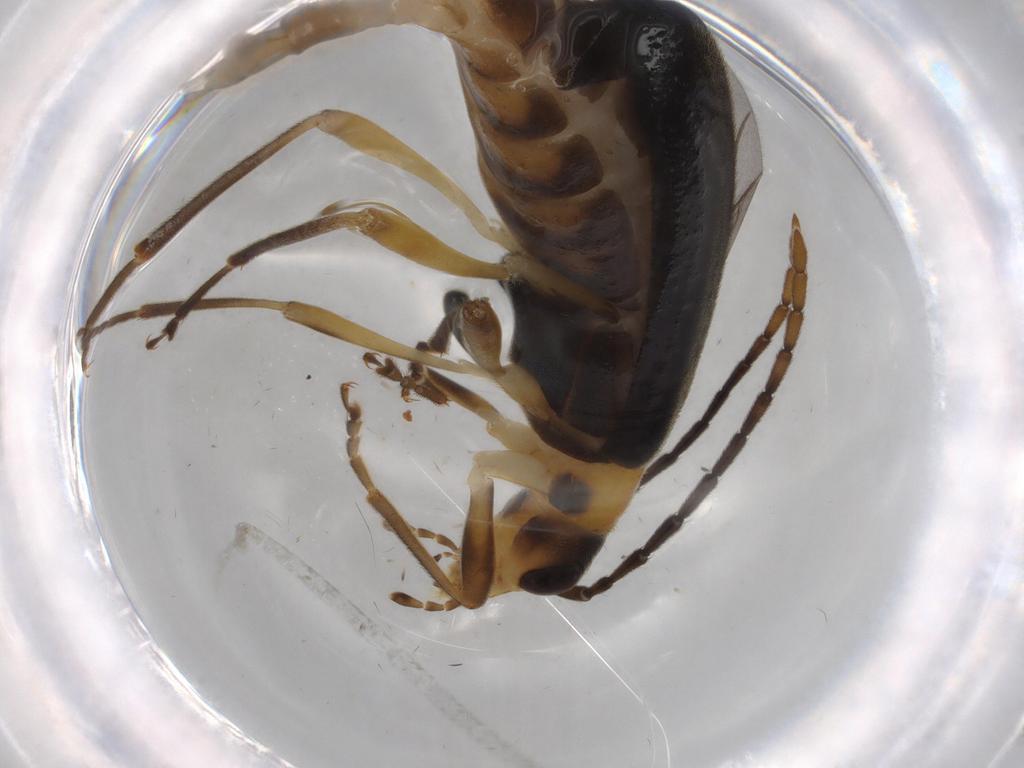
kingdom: Animalia
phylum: Arthropoda
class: Insecta
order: Coleoptera
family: Oedemeridae
